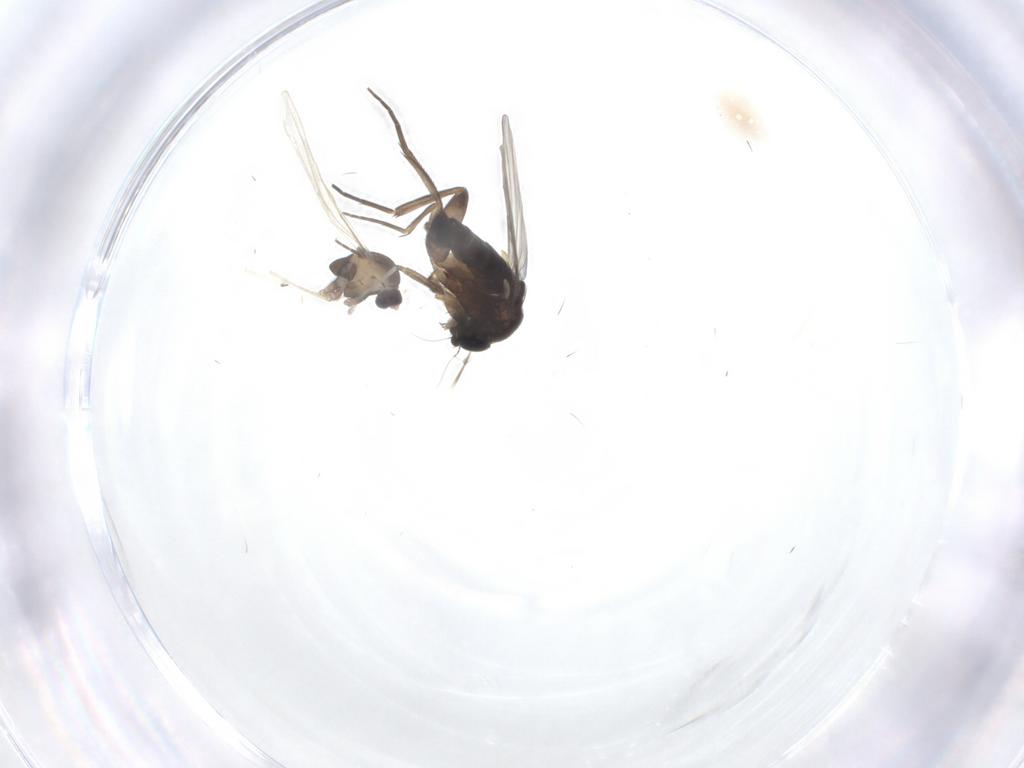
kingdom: Animalia
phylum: Arthropoda
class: Insecta
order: Diptera
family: Cecidomyiidae
